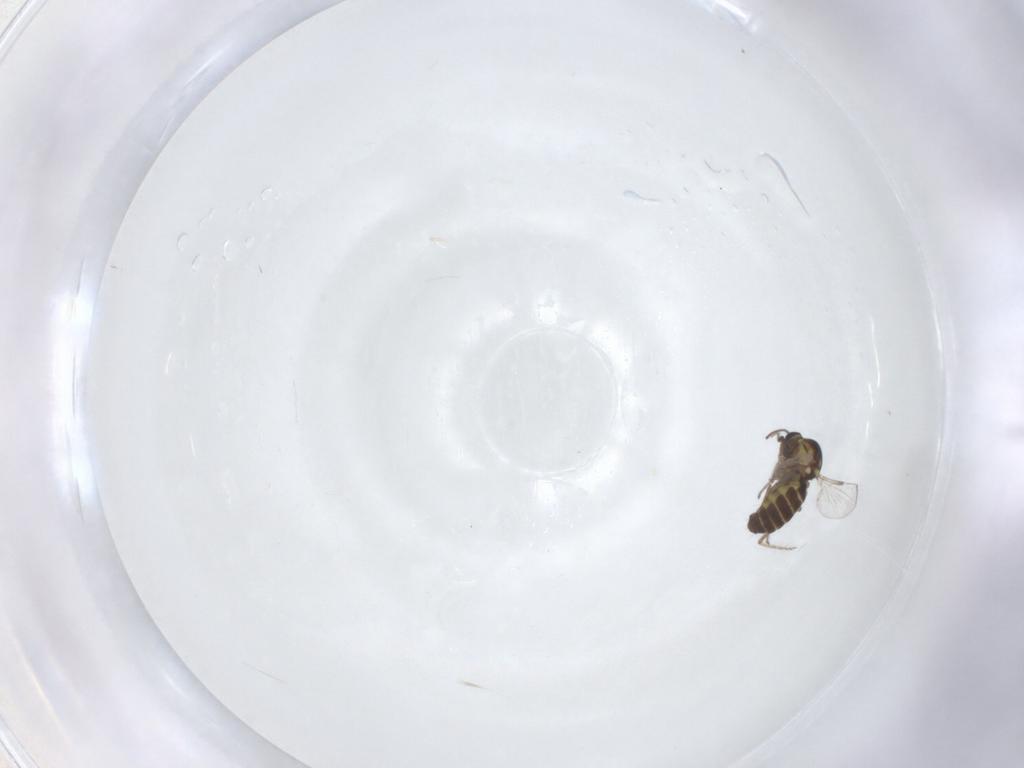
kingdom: Animalia
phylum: Arthropoda
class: Insecta
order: Diptera
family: Ceratopogonidae
